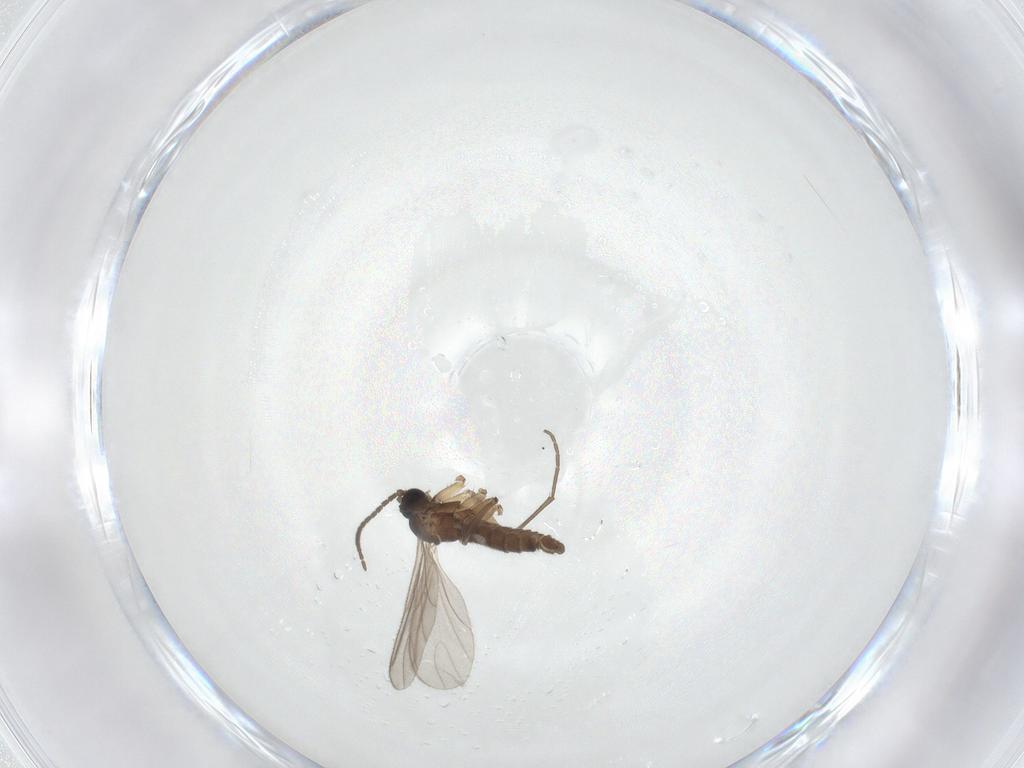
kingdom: Animalia
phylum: Arthropoda
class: Insecta
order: Diptera
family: Sciaridae
